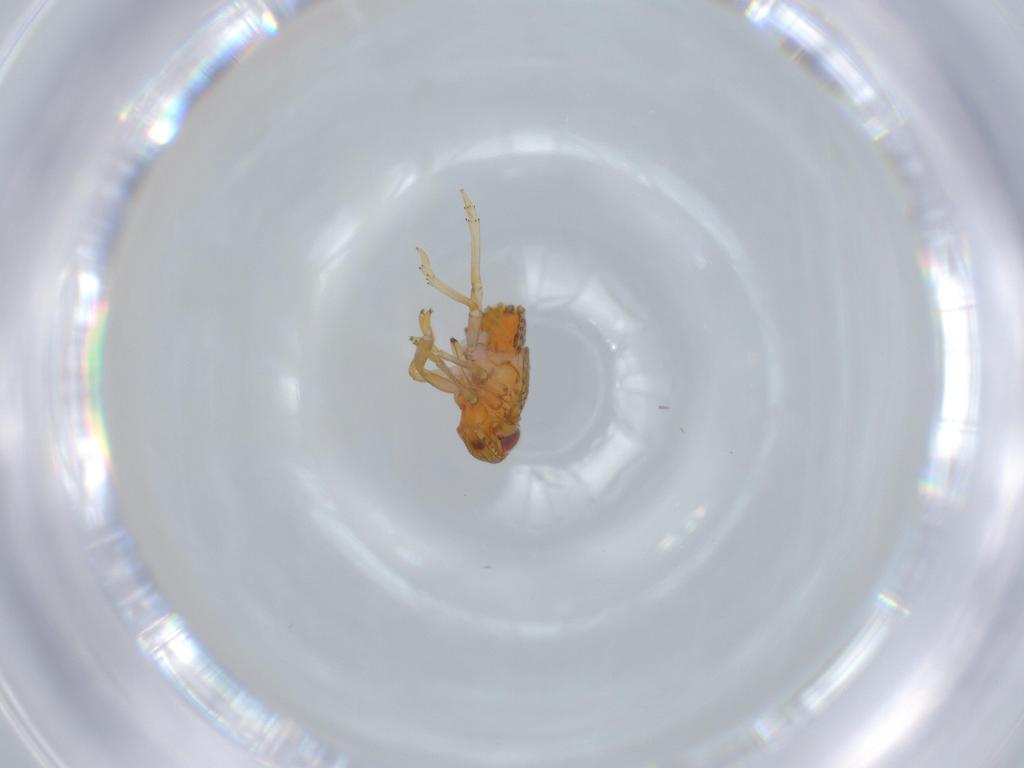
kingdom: Animalia
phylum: Arthropoda
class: Insecta
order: Hemiptera
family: Issidae
